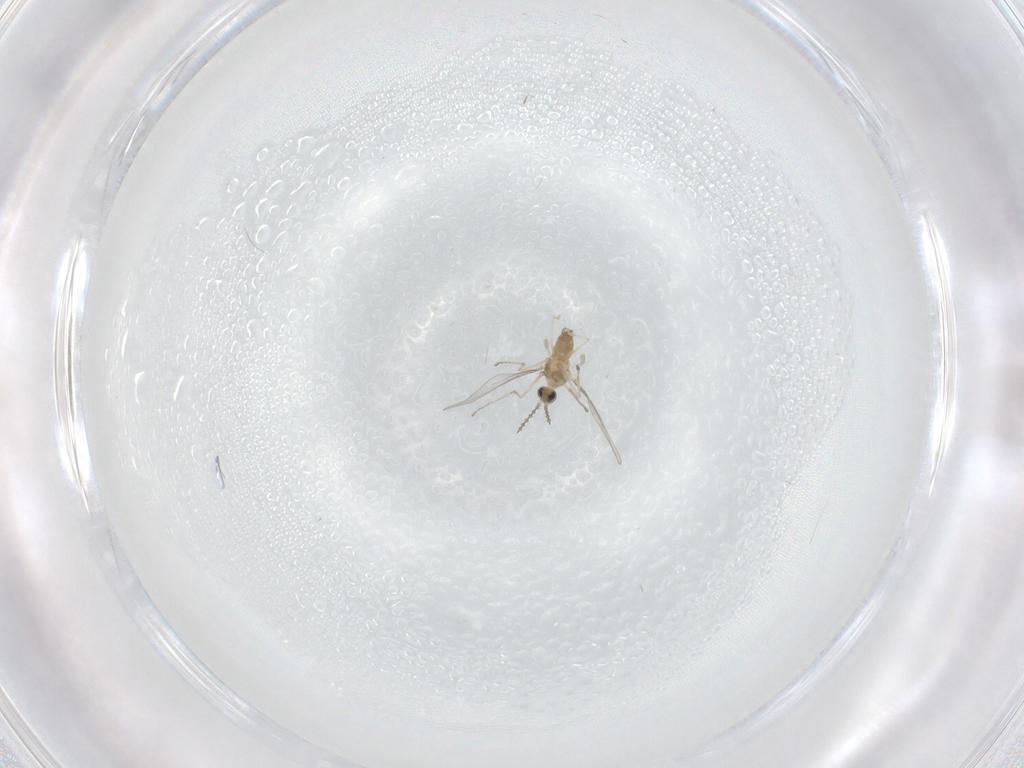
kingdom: Animalia
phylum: Arthropoda
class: Insecta
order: Diptera
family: Cecidomyiidae
